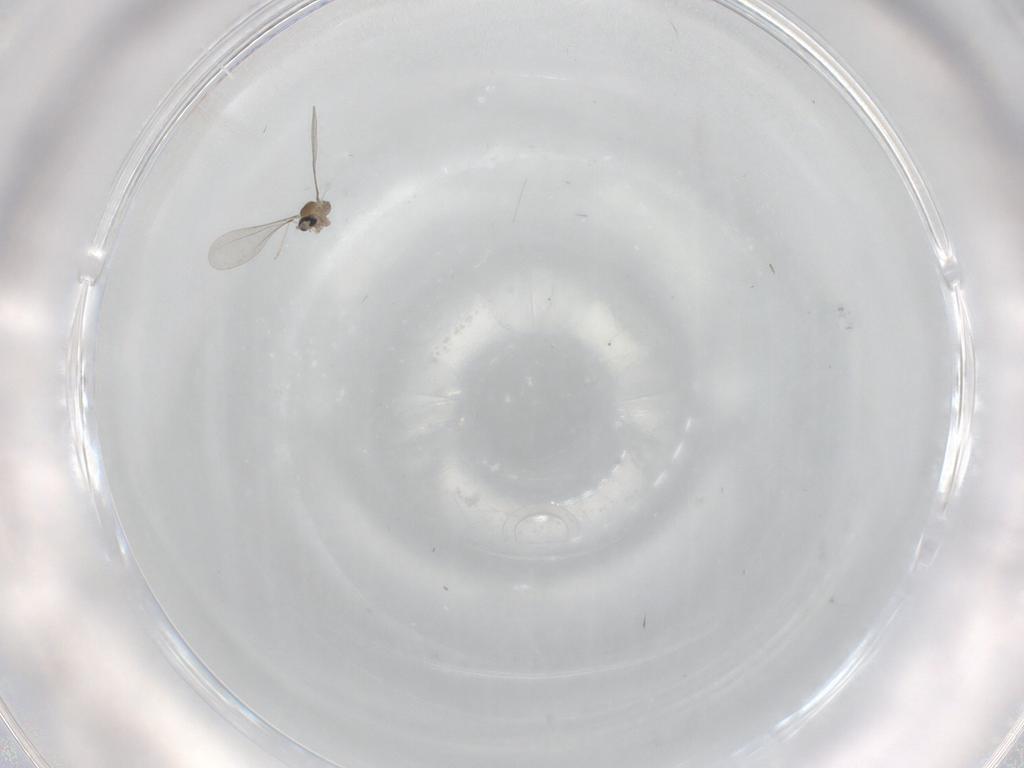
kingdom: Animalia
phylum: Arthropoda
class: Insecta
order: Diptera
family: Cecidomyiidae
